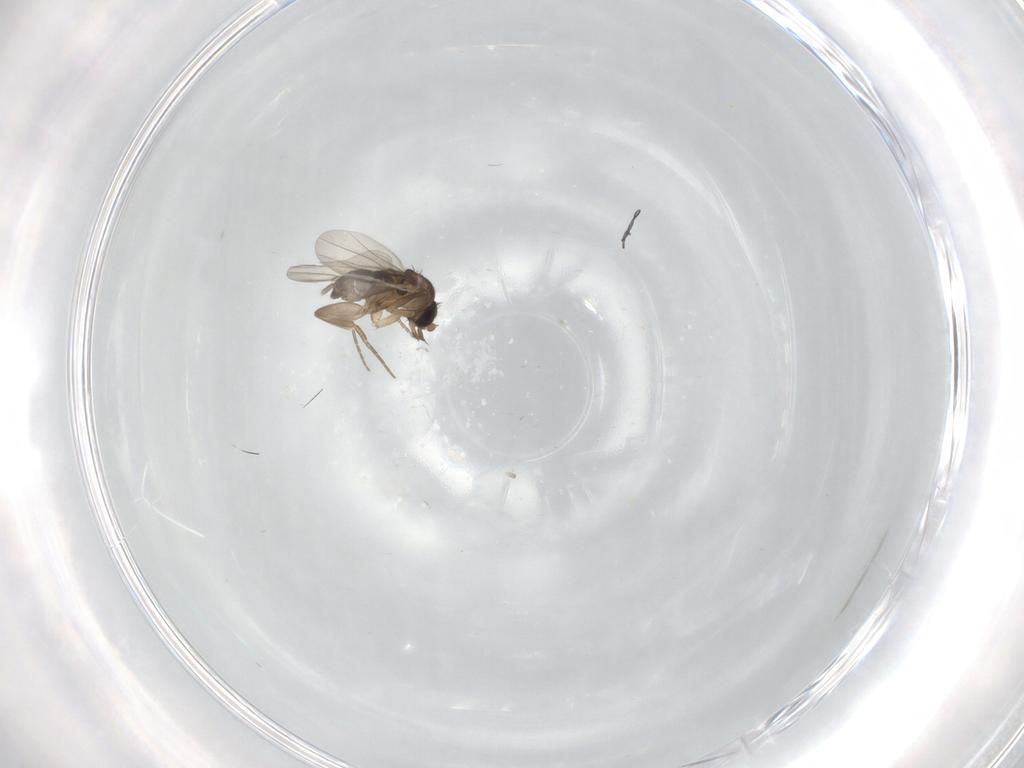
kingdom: Animalia
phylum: Arthropoda
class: Insecta
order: Diptera
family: Phoridae
